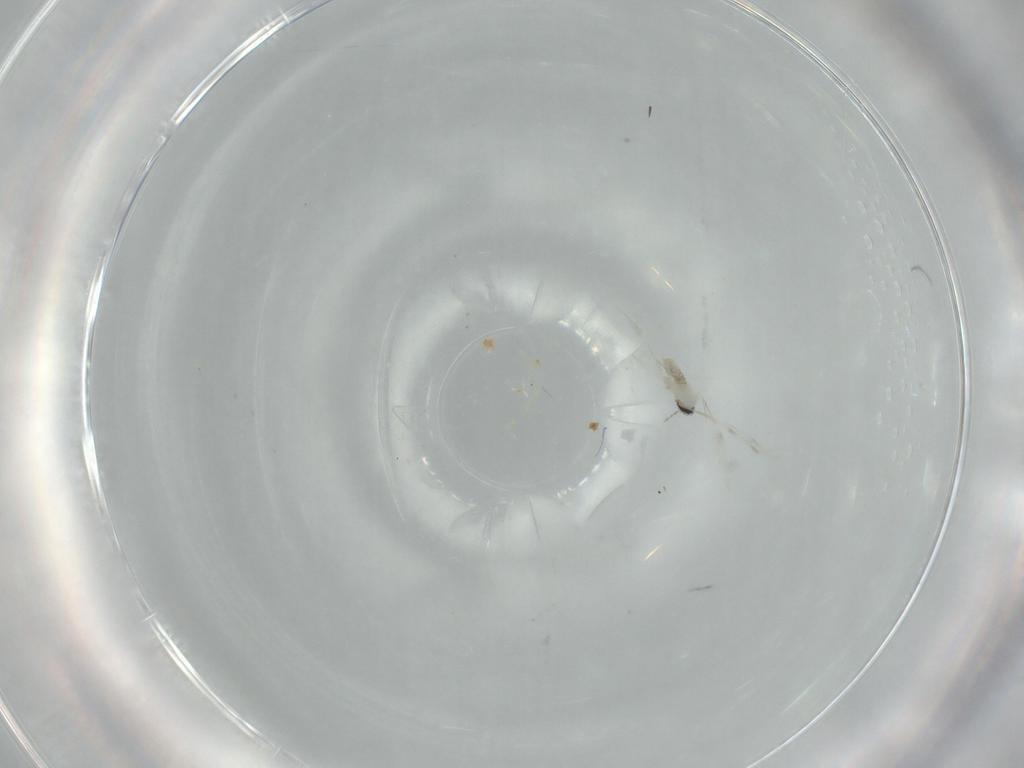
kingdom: Animalia
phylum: Arthropoda
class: Insecta
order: Diptera
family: Cecidomyiidae
